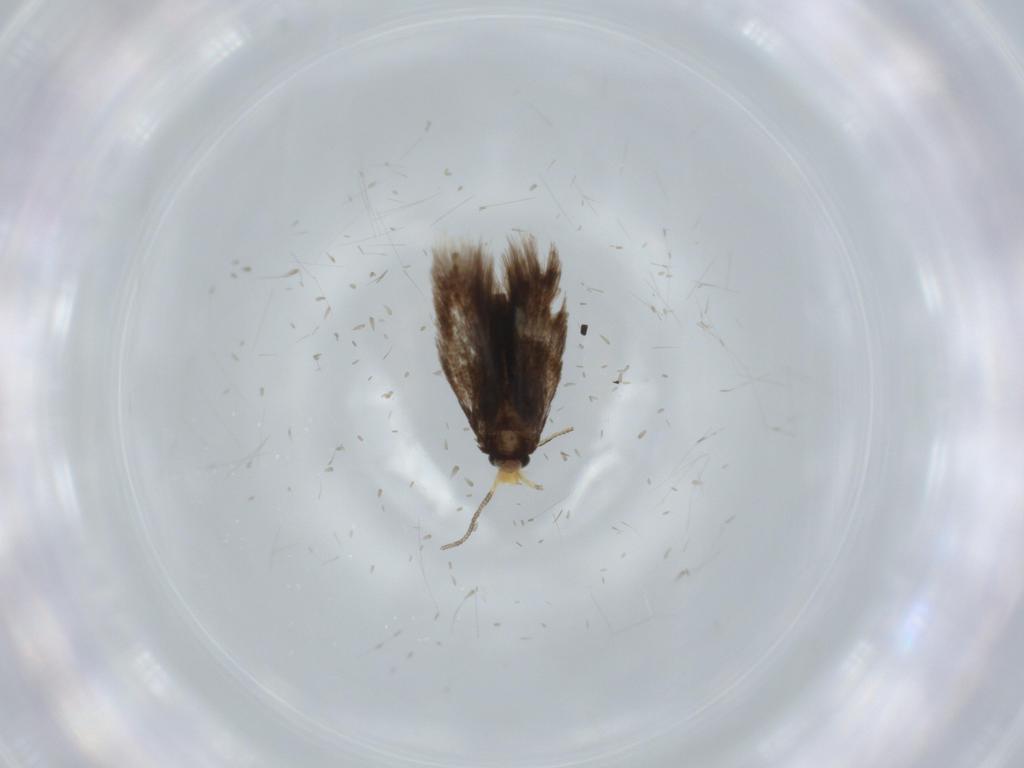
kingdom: Animalia
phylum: Arthropoda
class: Insecta
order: Lepidoptera
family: Nepticulidae
